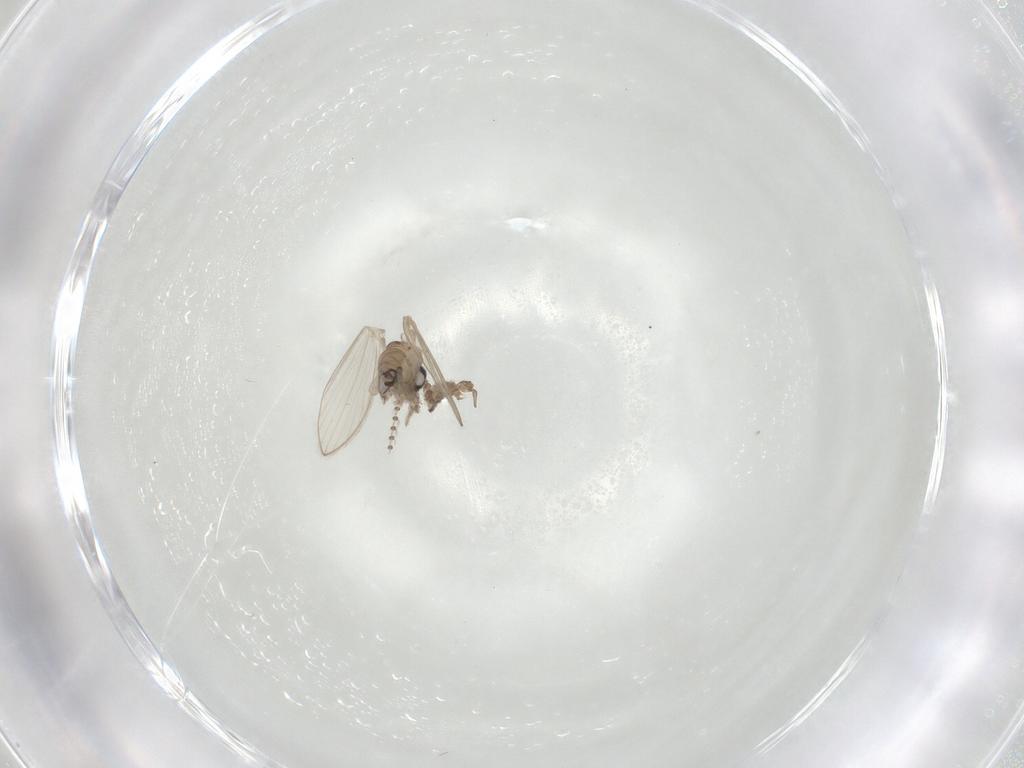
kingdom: Animalia
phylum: Arthropoda
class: Insecta
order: Diptera
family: Psychodidae
